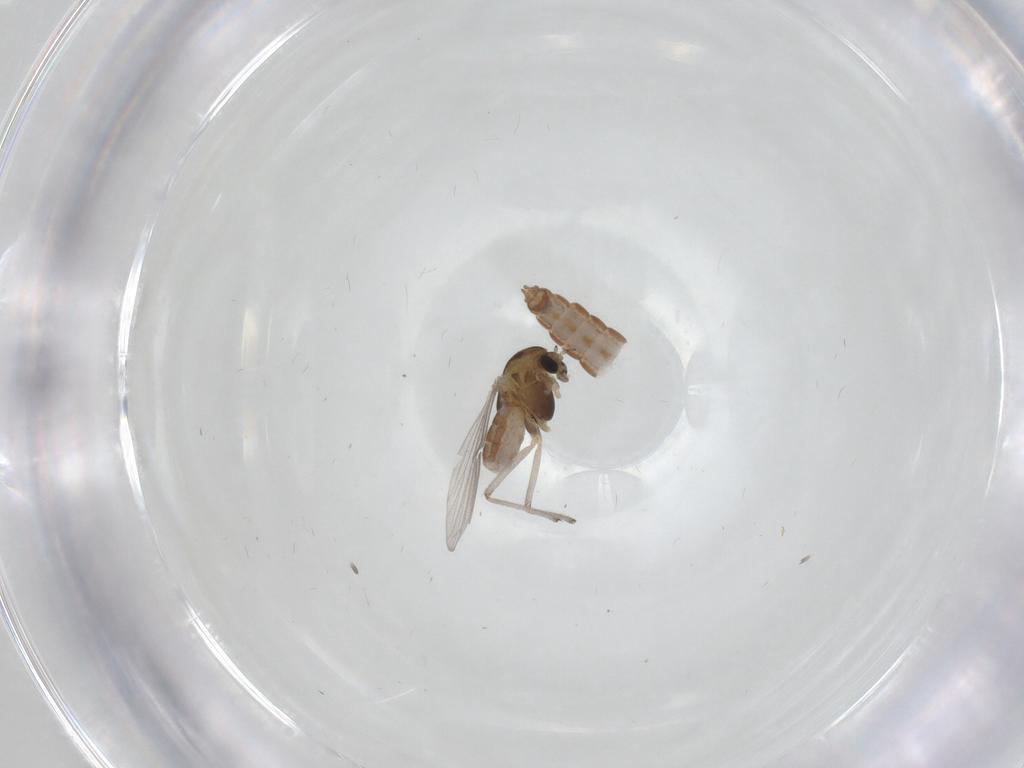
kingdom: Animalia
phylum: Arthropoda
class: Insecta
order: Diptera
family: Chironomidae
